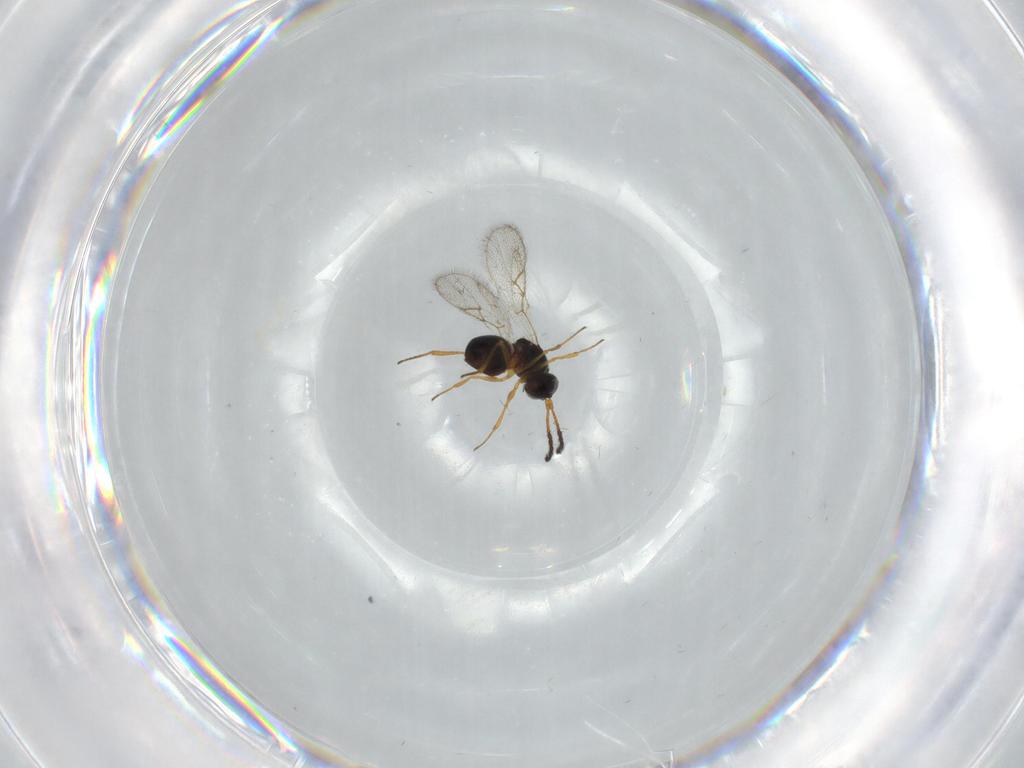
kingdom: Animalia
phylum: Arthropoda
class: Insecta
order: Hymenoptera
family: Figitidae
